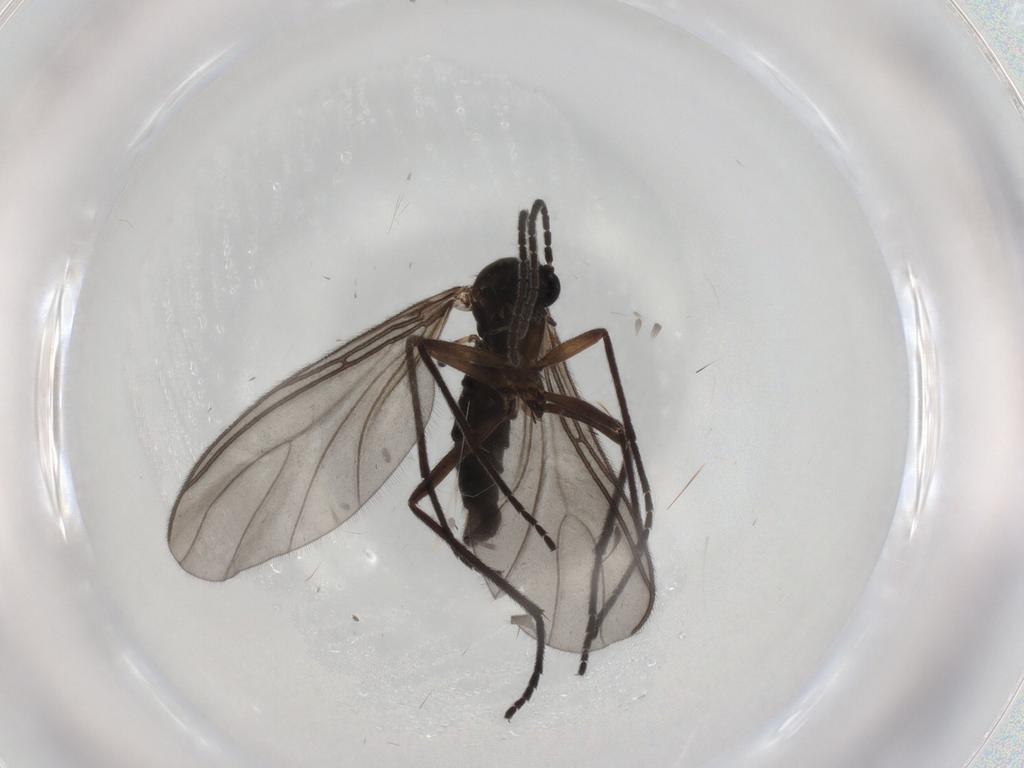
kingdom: Animalia
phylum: Arthropoda
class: Insecta
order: Diptera
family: Sciaridae
